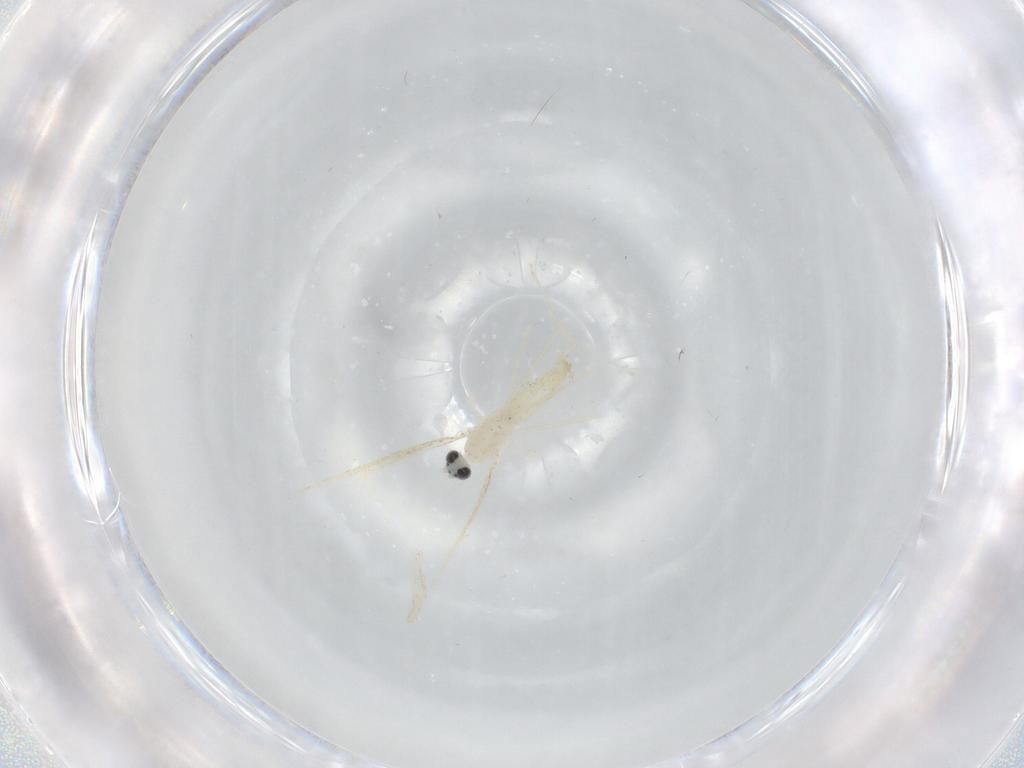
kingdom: Animalia
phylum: Arthropoda
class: Insecta
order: Diptera
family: Cecidomyiidae
